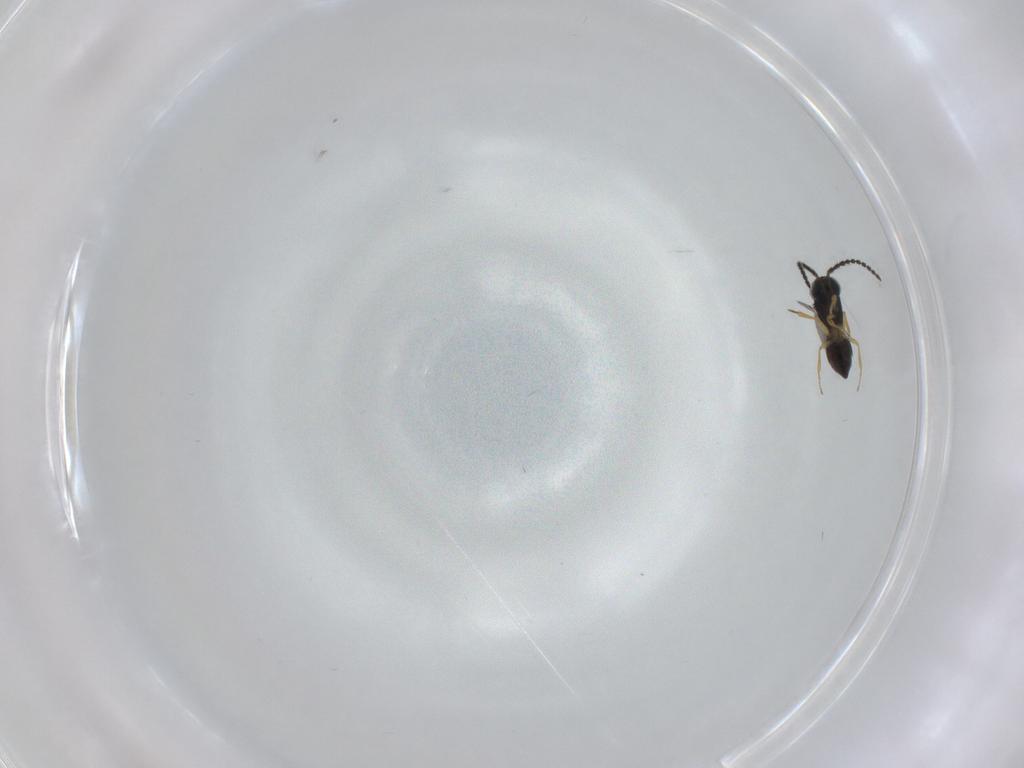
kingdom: Animalia
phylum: Arthropoda
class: Insecta
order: Hymenoptera
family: Scelionidae
